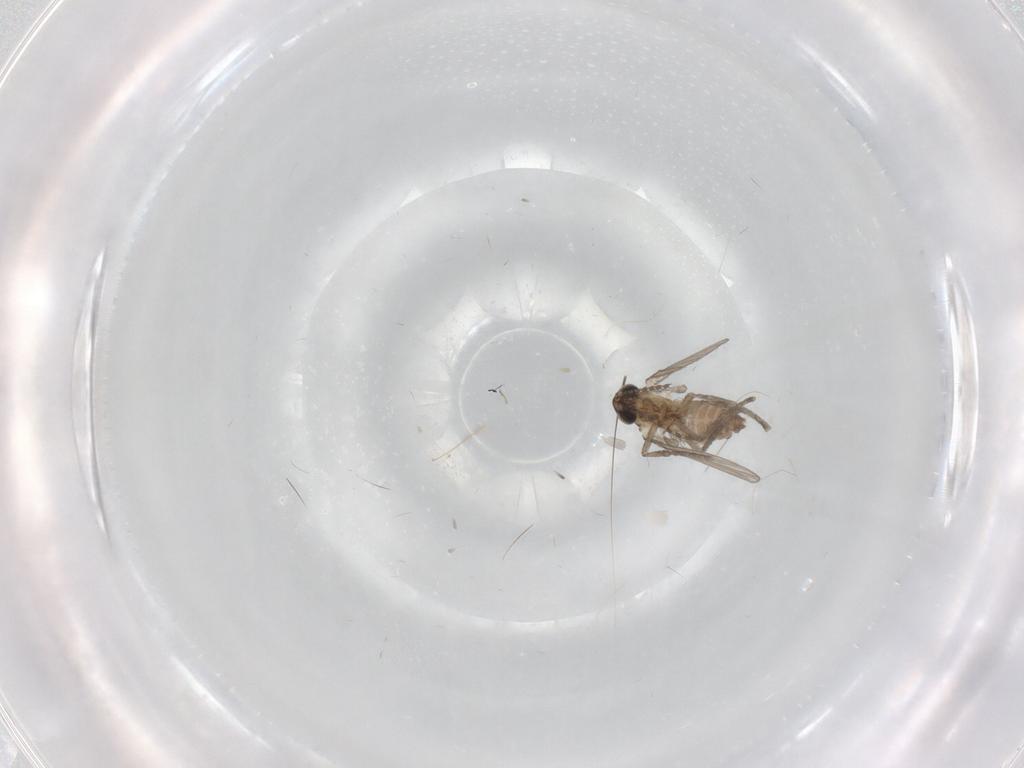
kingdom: Animalia
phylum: Arthropoda
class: Insecta
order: Diptera
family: Psychodidae
